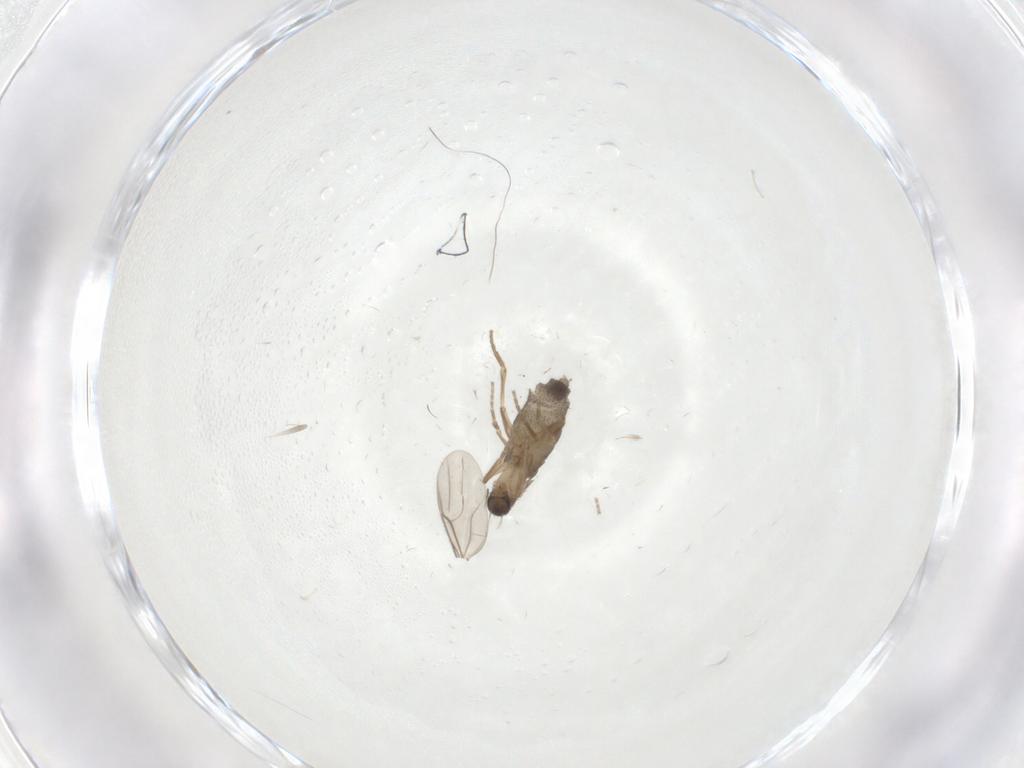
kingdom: Animalia
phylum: Arthropoda
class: Insecta
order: Diptera
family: Phoridae
